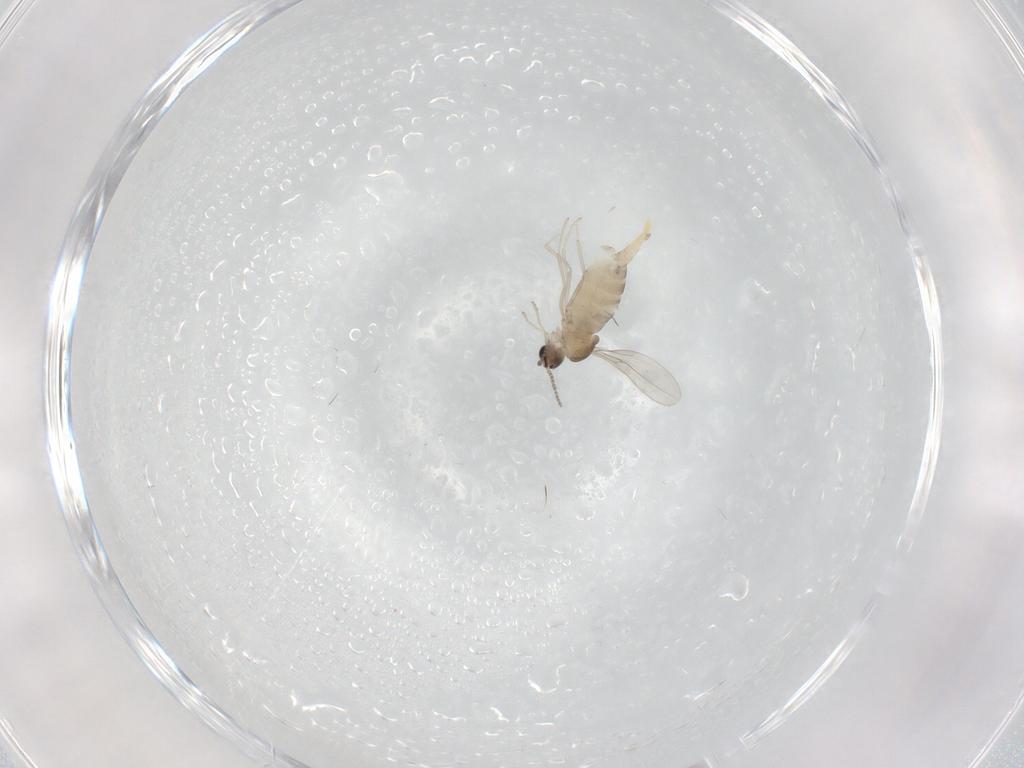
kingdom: Animalia
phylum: Arthropoda
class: Insecta
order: Diptera
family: Cecidomyiidae
